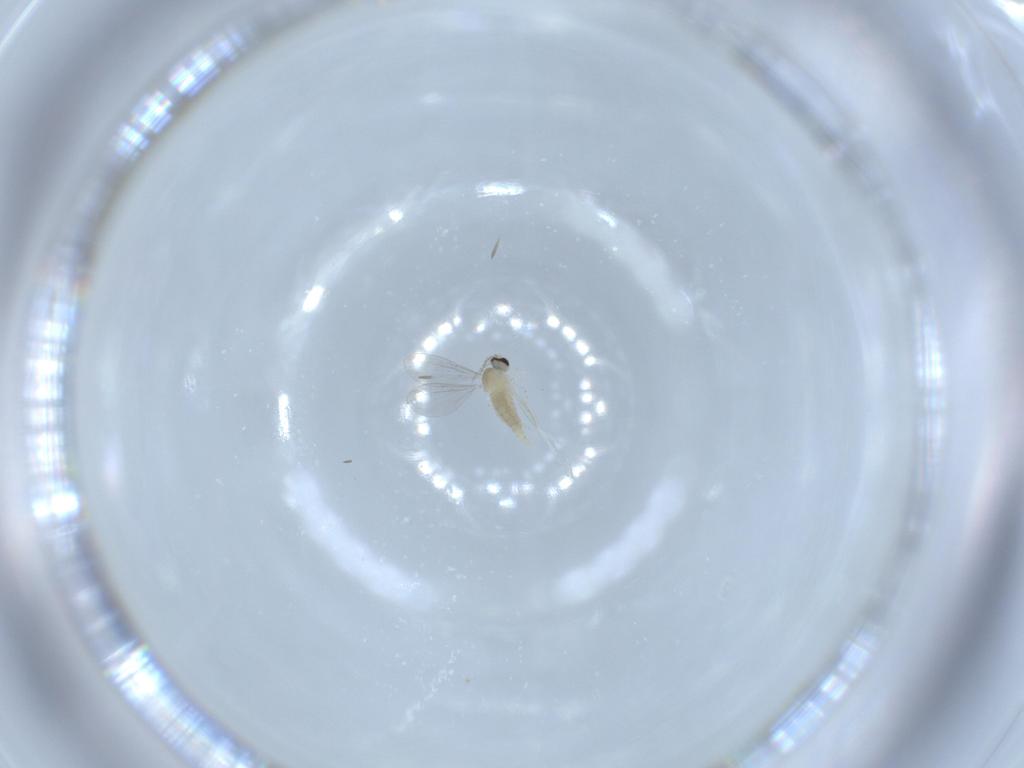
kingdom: Animalia
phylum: Arthropoda
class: Insecta
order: Diptera
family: Cecidomyiidae
